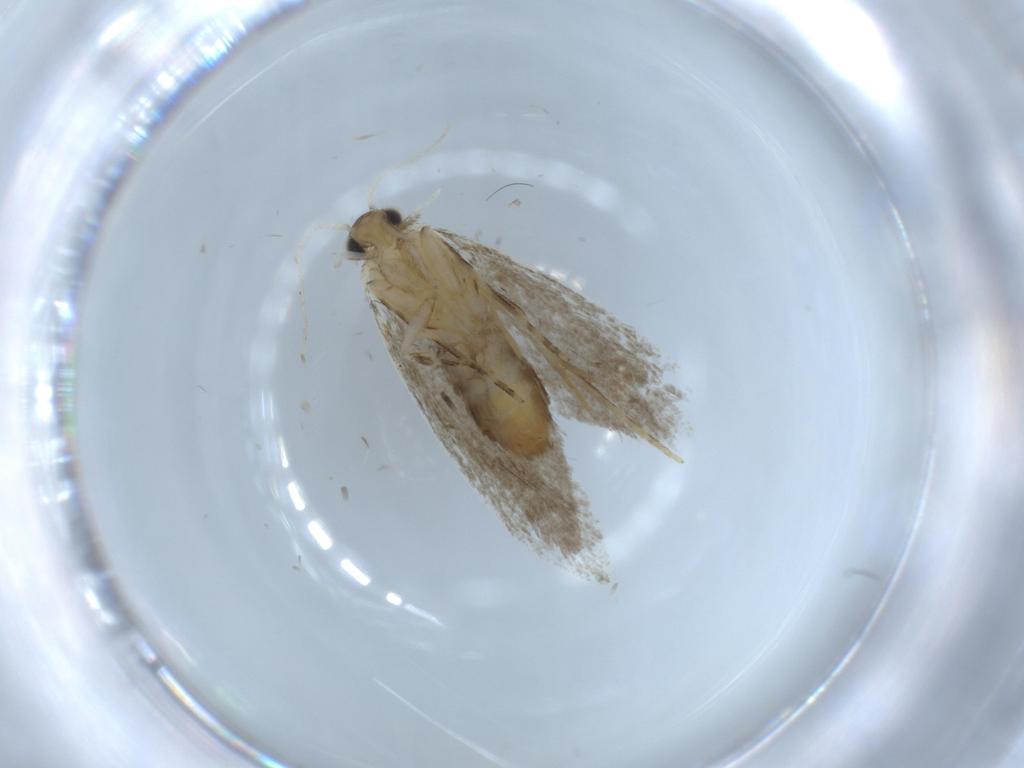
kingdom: Animalia
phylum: Arthropoda
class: Insecta
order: Lepidoptera
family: Tineidae
